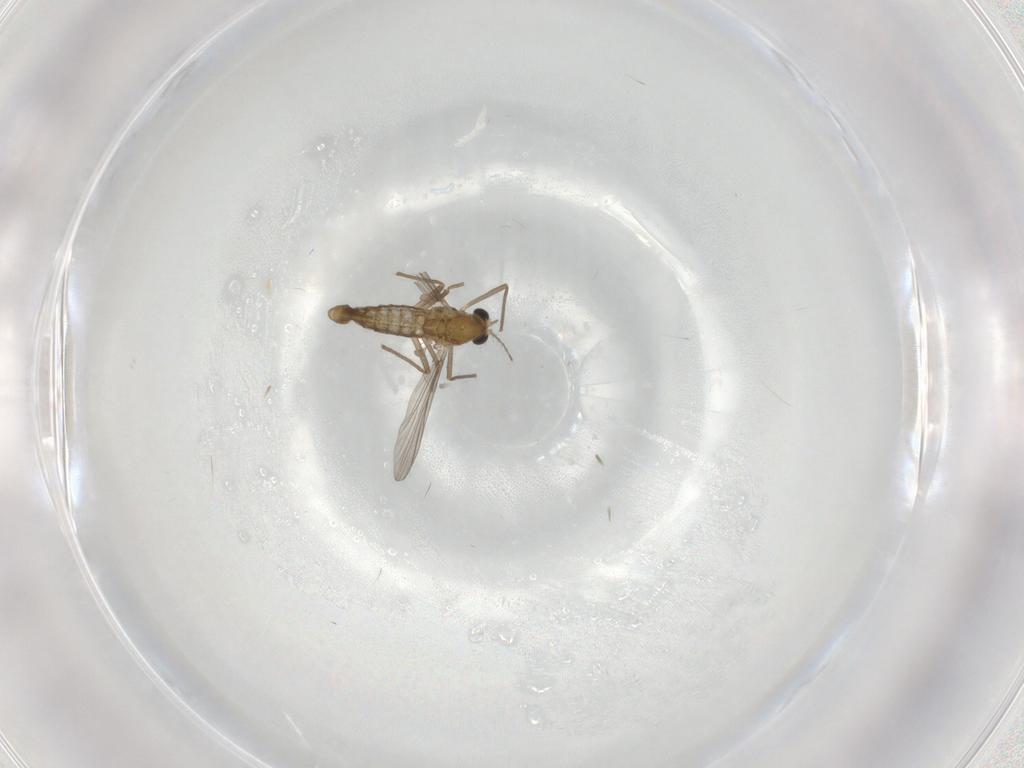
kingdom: Animalia
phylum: Arthropoda
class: Insecta
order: Diptera
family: Chironomidae
